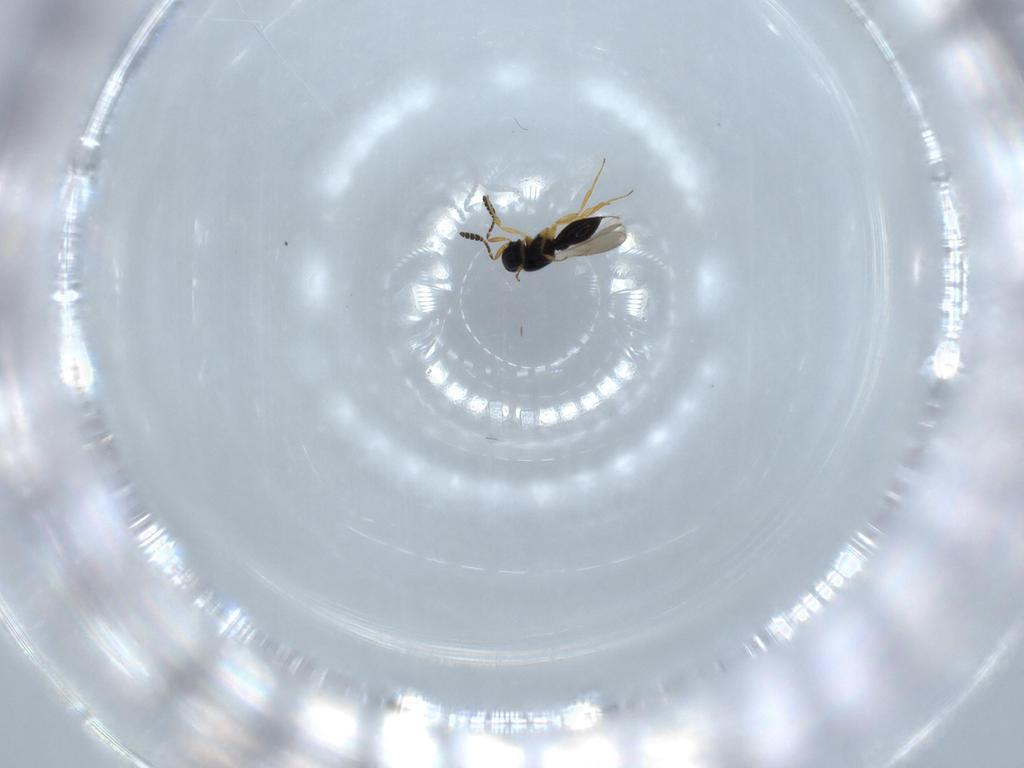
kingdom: Animalia
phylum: Arthropoda
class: Insecta
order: Hymenoptera
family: Scelionidae
